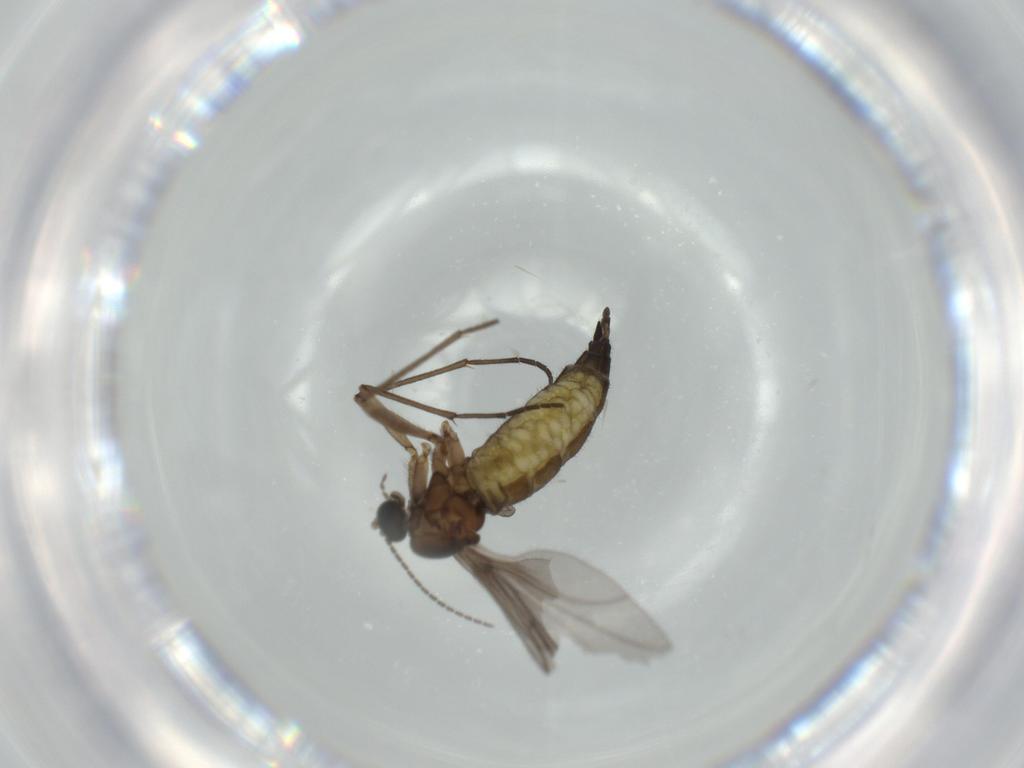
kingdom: Animalia
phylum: Arthropoda
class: Insecta
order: Diptera
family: Sciaridae
